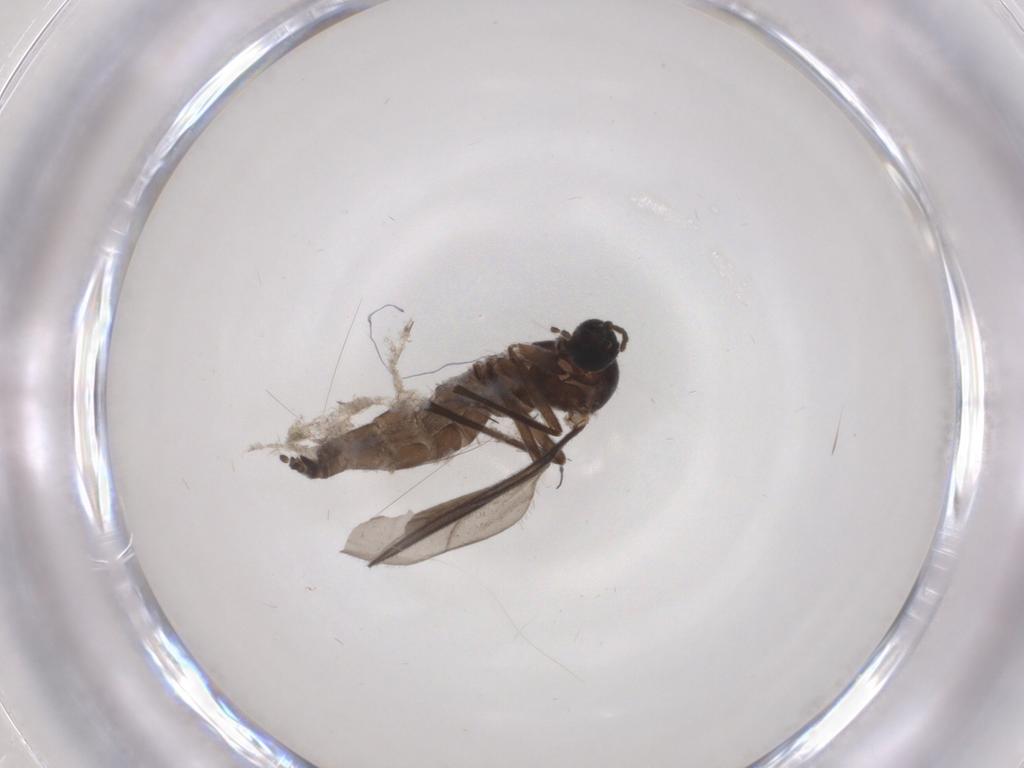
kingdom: Animalia
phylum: Arthropoda
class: Insecta
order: Diptera
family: Sciaridae
